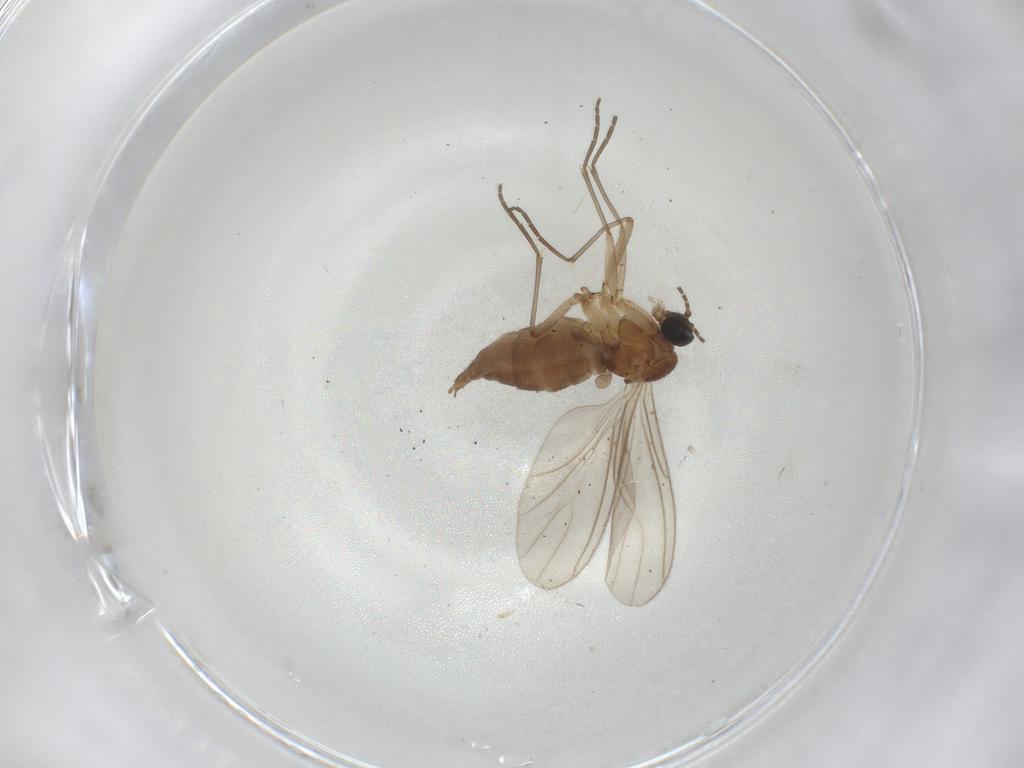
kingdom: Animalia
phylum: Arthropoda
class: Insecta
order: Diptera
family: Sciaridae
